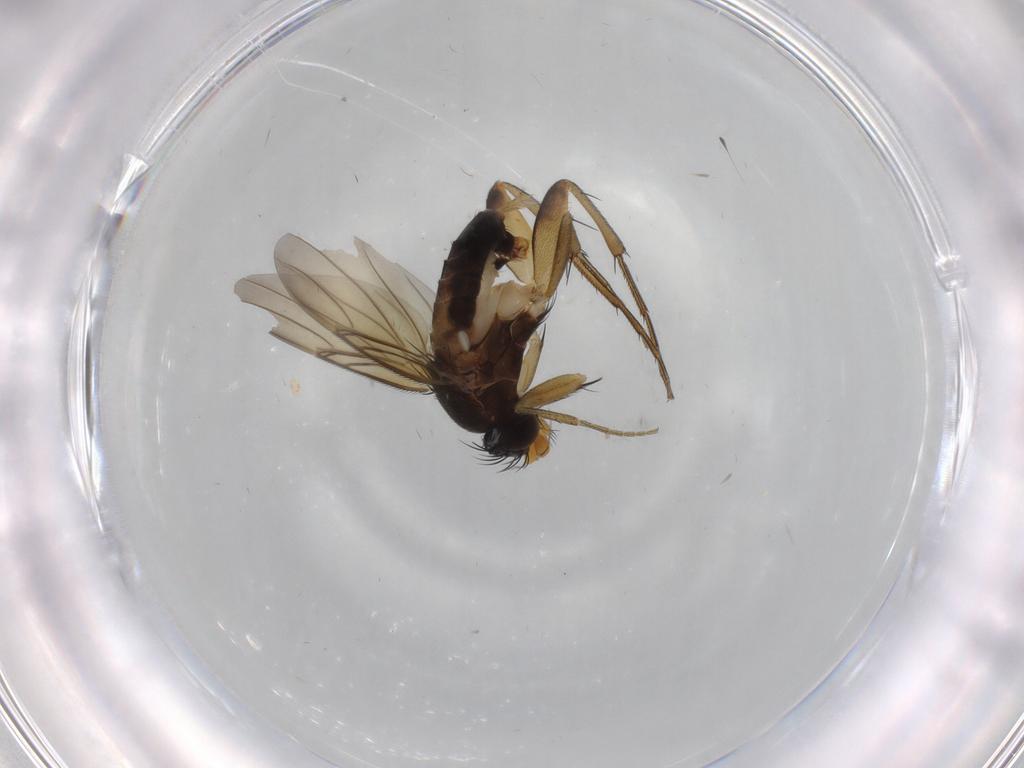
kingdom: Animalia
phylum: Arthropoda
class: Insecta
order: Diptera
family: Phoridae
